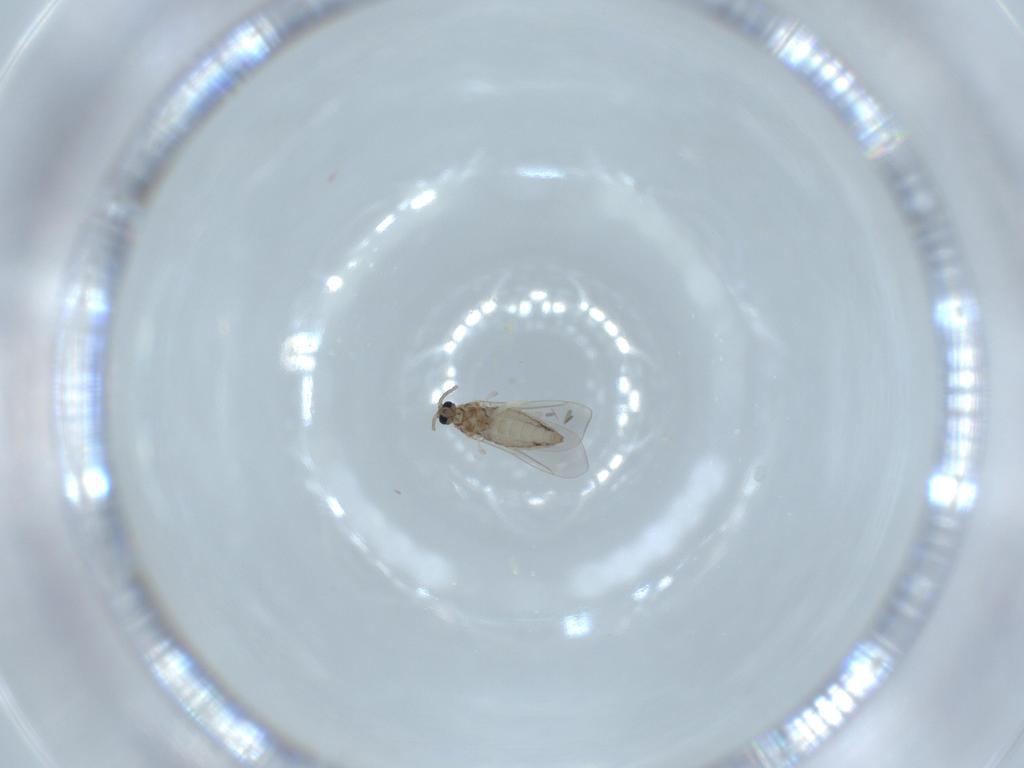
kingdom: Animalia
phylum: Arthropoda
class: Insecta
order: Diptera
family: Cecidomyiidae
